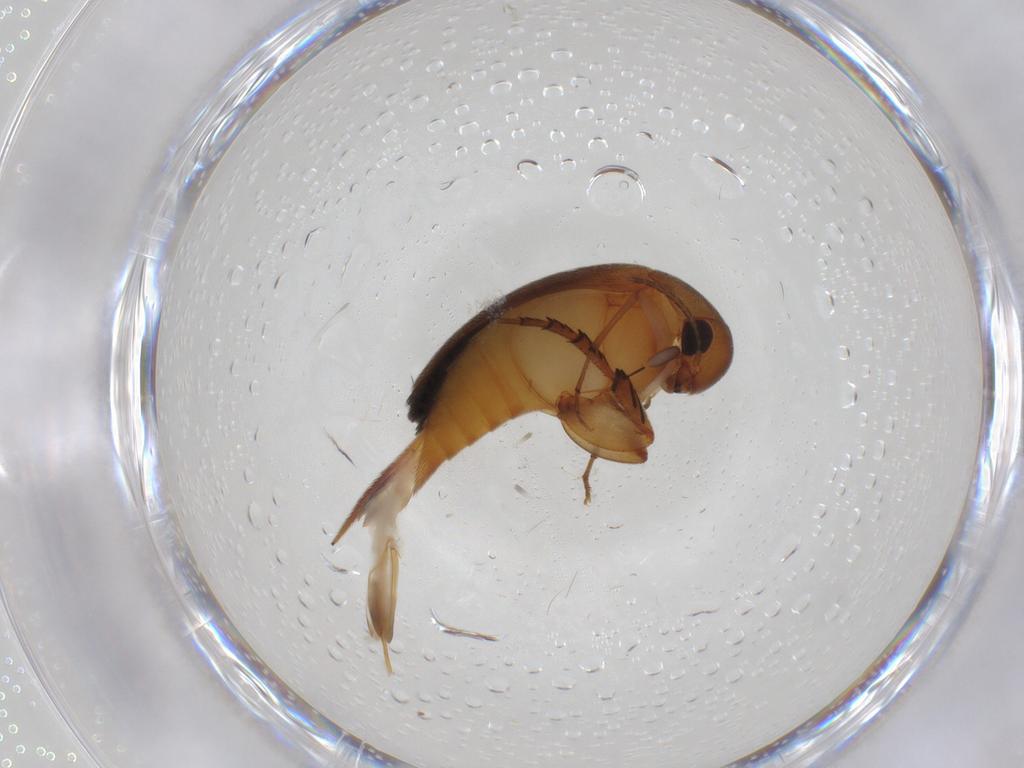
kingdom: Animalia
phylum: Arthropoda
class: Insecta
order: Coleoptera
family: Mordellidae
